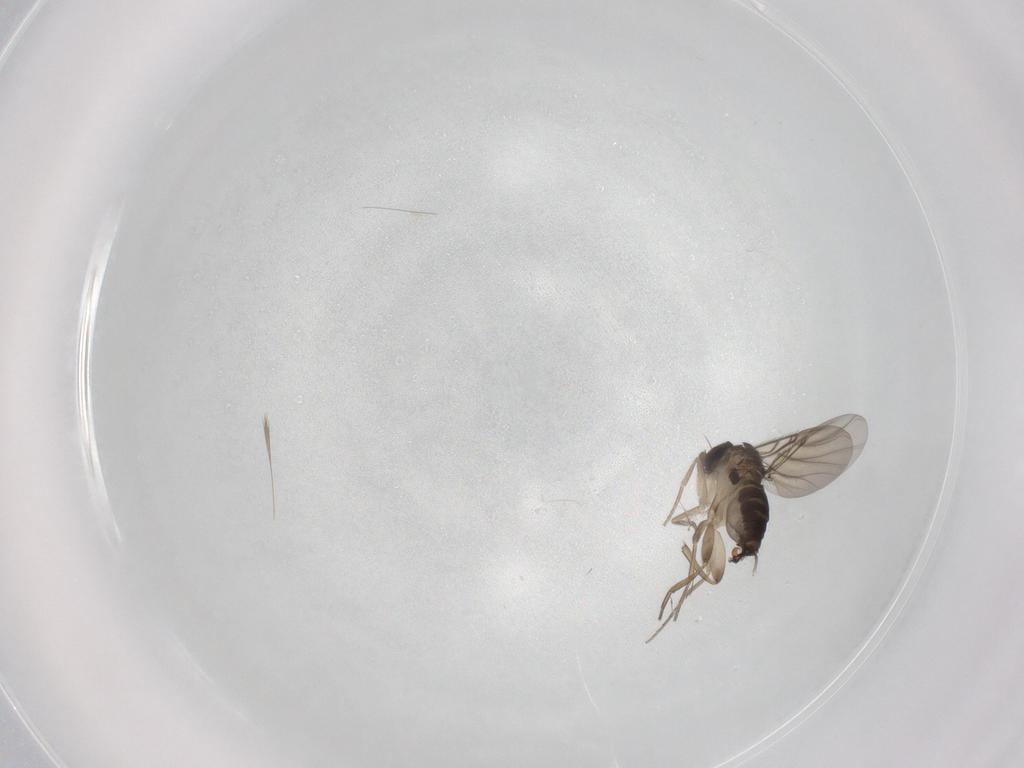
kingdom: Animalia
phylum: Arthropoda
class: Insecta
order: Diptera
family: Phoridae
